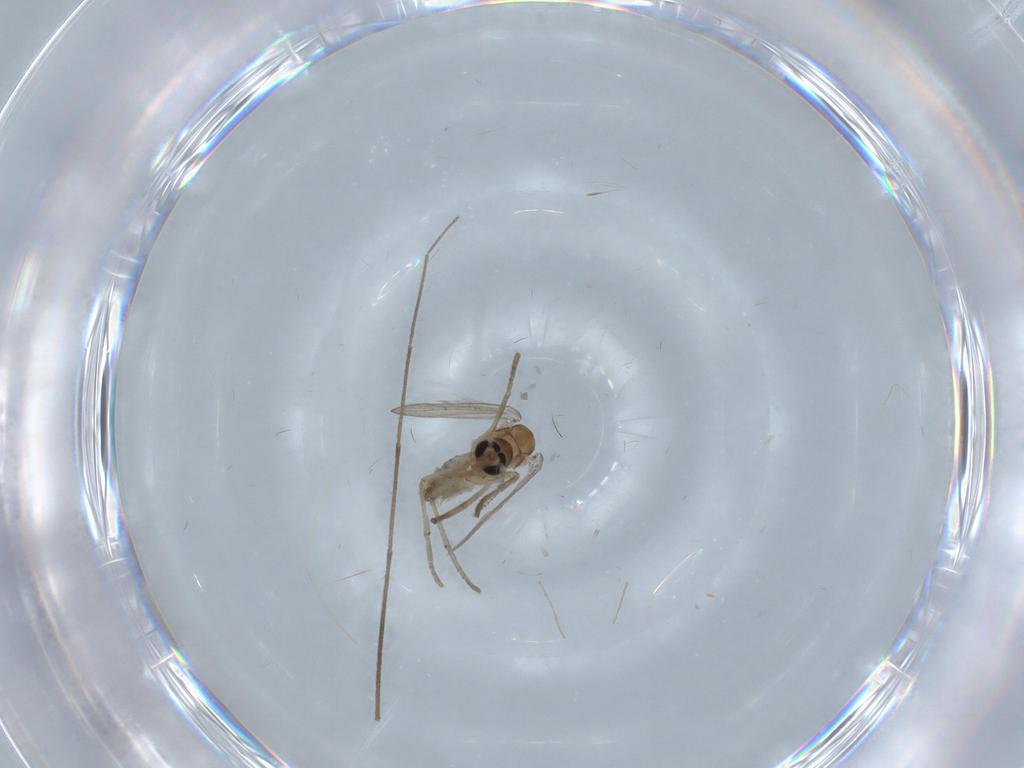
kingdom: Animalia
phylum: Arthropoda
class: Insecta
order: Diptera
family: Psychodidae
